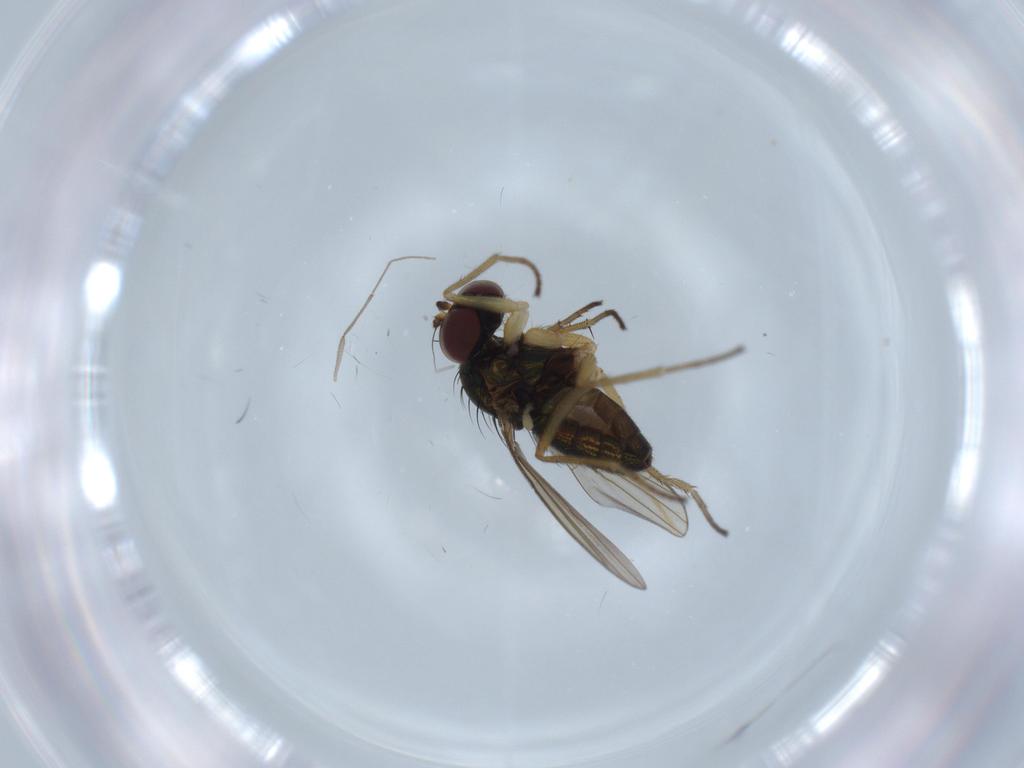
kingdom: Animalia
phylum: Arthropoda
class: Insecta
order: Diptera
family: Chironomidae
